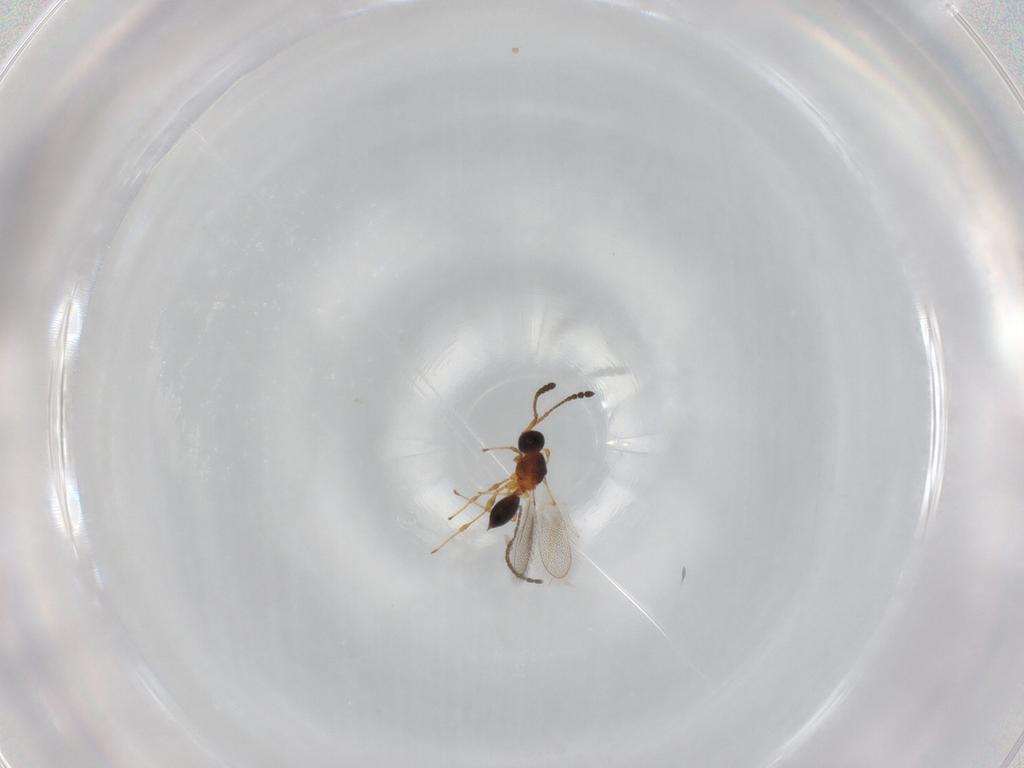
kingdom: Animalia
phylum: Arthropoda
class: Insecta
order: Hymenoptera
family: Diapriidae
